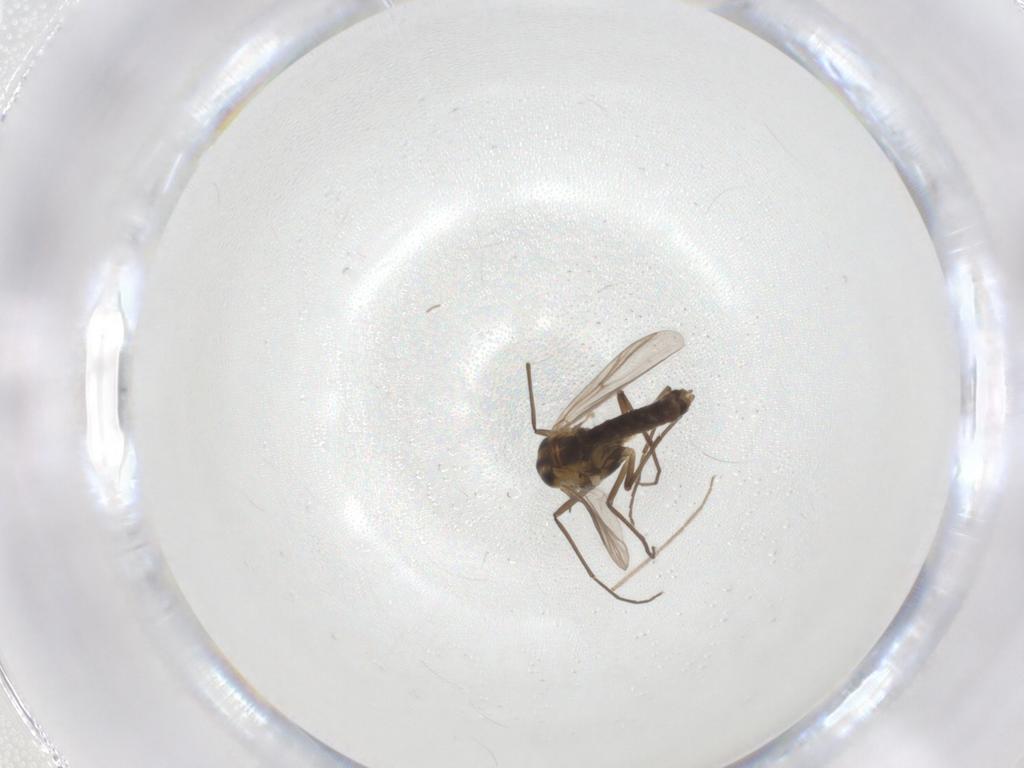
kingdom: Animalia
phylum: Arthropoda
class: Insecta
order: Diptera
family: Chironomidae
